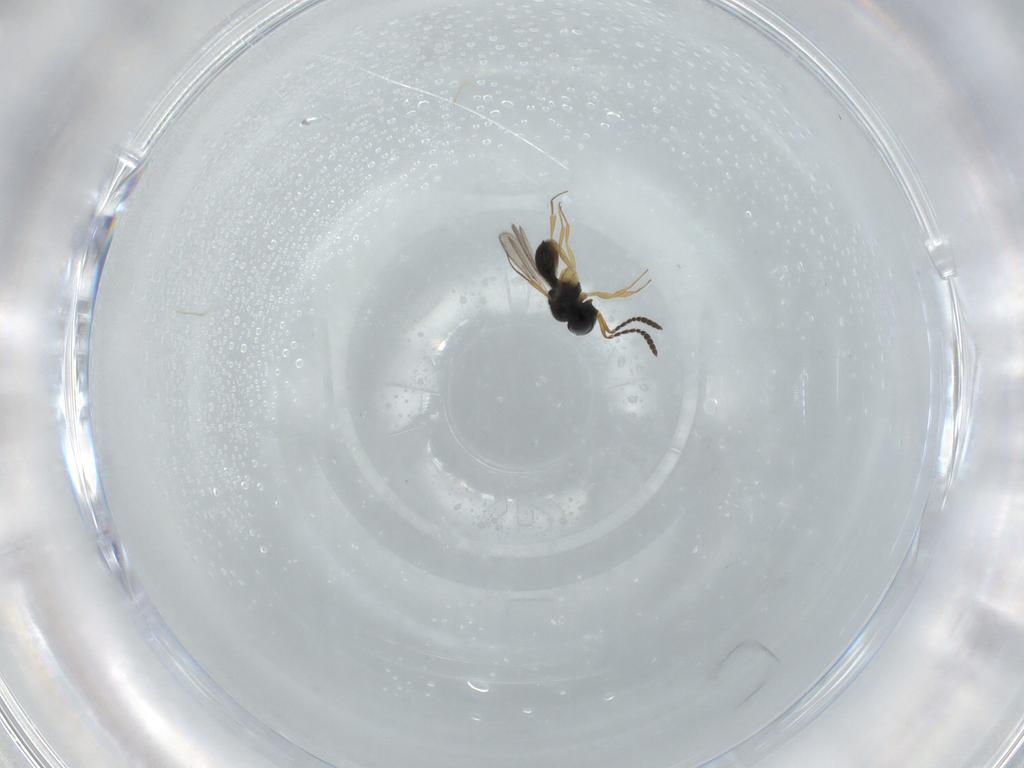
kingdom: Animalia
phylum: Arthropoda
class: Insecta
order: Hymenoptera
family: Scelionidae
